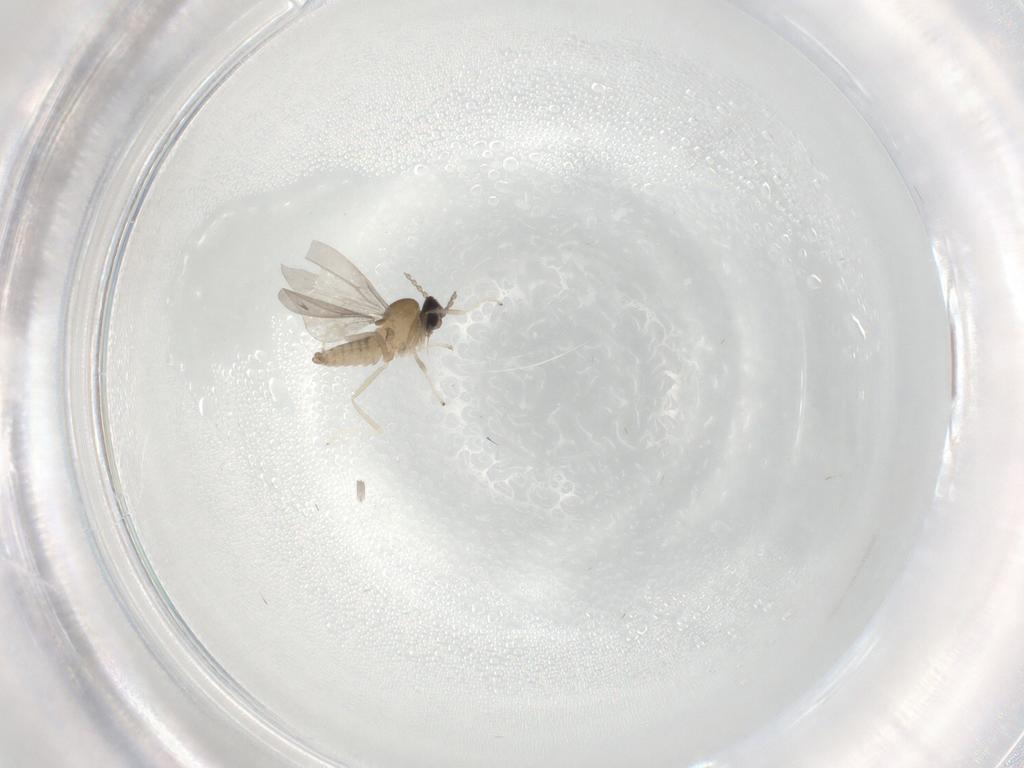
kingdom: Animalia
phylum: Arthropoda
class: Insecta
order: Diptera
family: Cecidomyiidae
